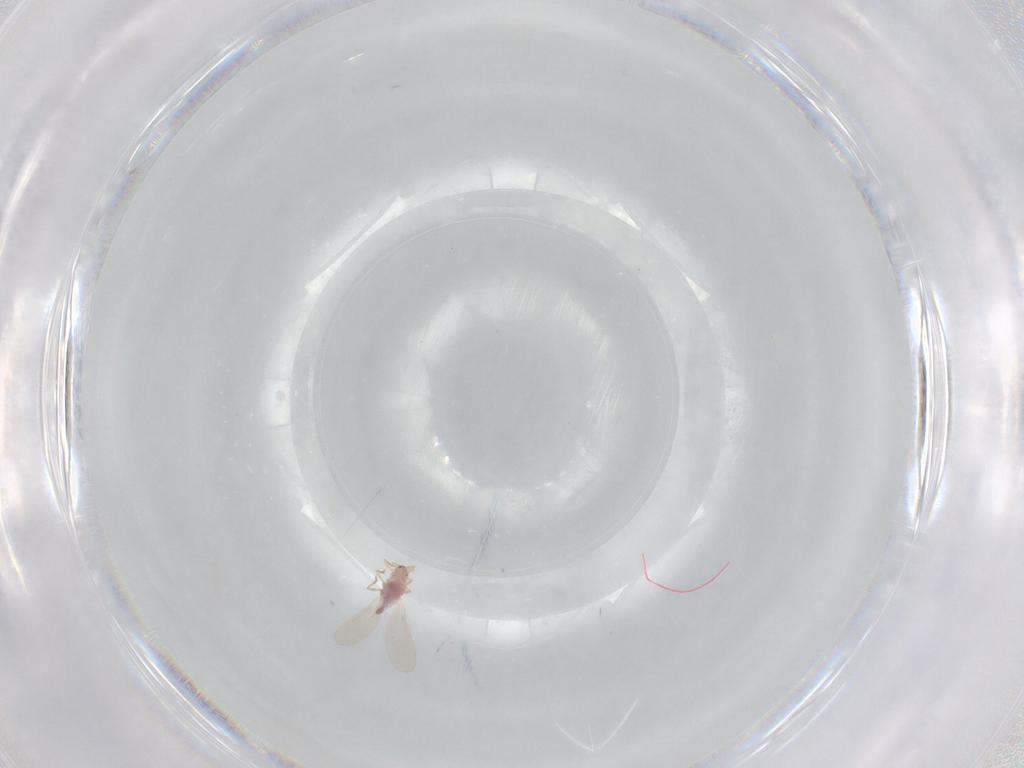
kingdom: Animalia
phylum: Arthropoda
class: Insecta
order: Hemiptera
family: Pseudococcidae
